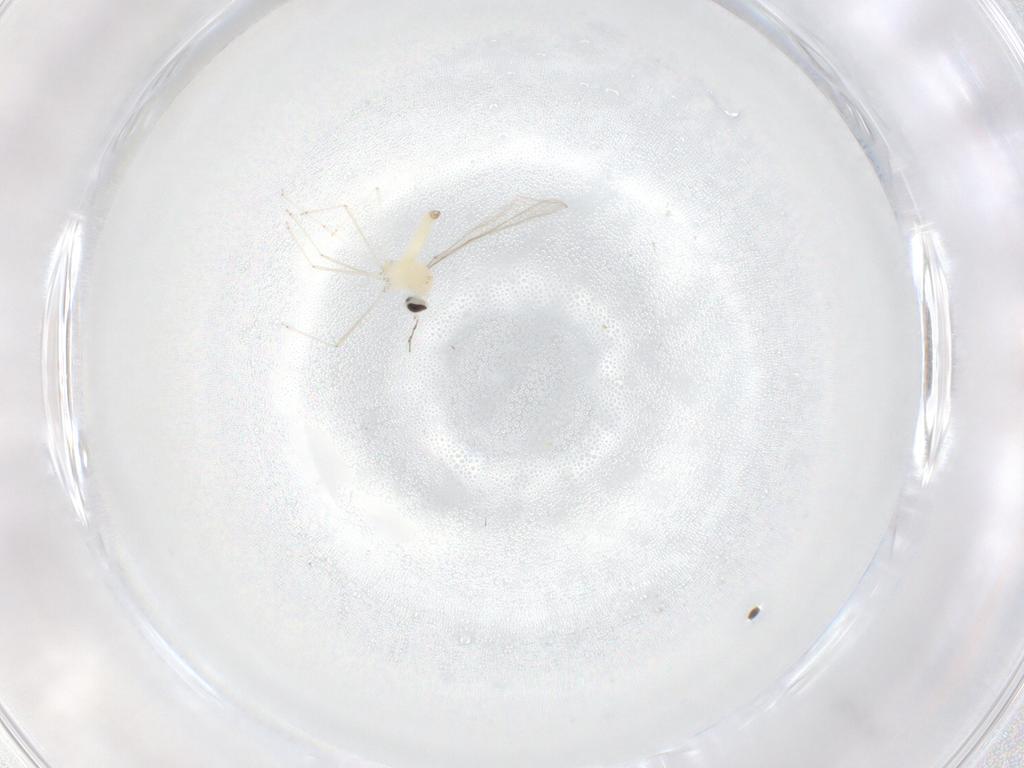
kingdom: Animalia
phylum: Arthropoda
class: Insecta
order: Diptera
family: Cecidomyiidae
